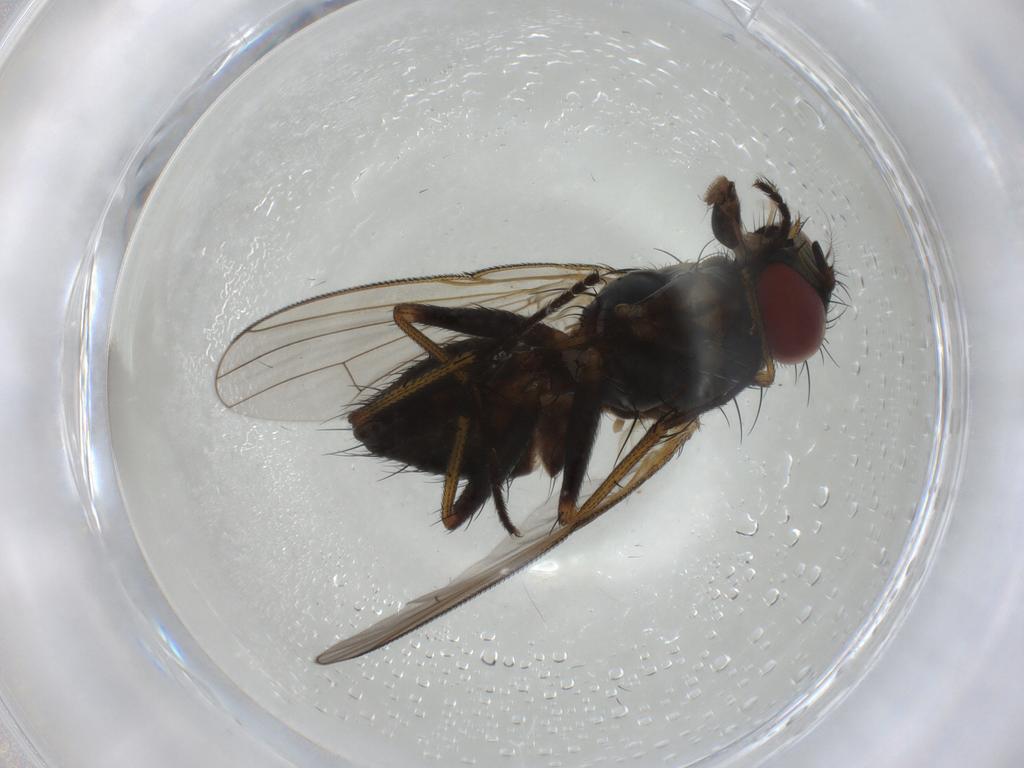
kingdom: Animalia
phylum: Arthropoda
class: Insecta
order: Diptera
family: Muscidae
